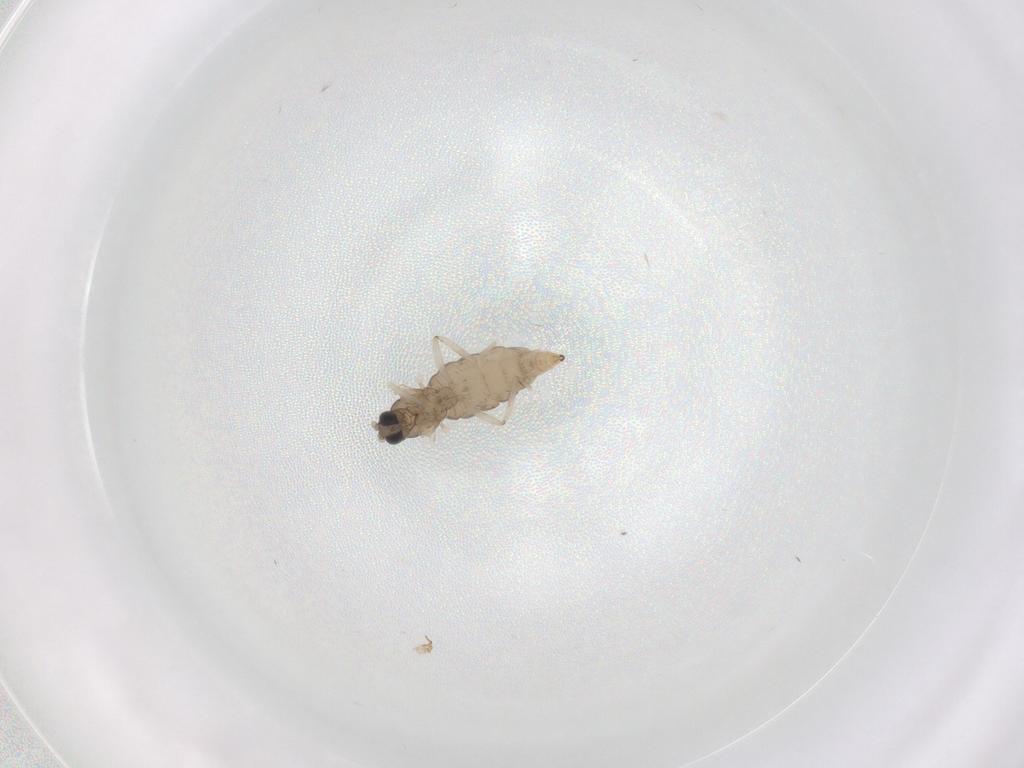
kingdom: Animalia
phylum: Arthropoda
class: Insecta
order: Diptera
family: Cecidomyiidae
